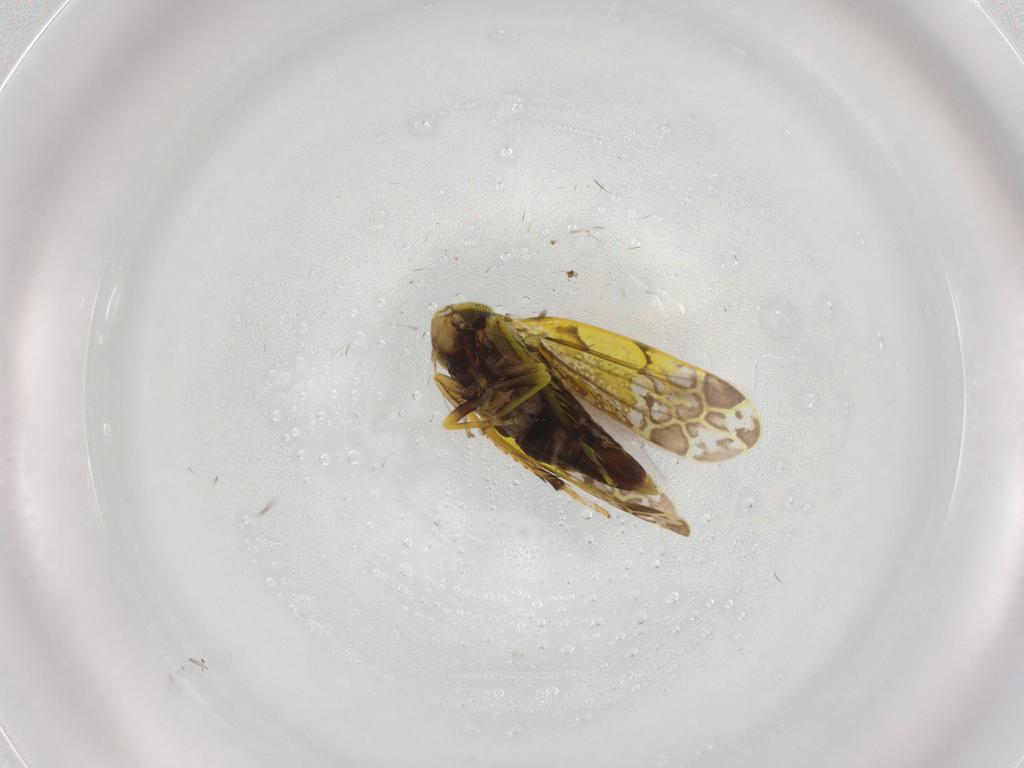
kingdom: Animalia
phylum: Arthropoda
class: Insecta
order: Hemiptera
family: Cicadellidae
